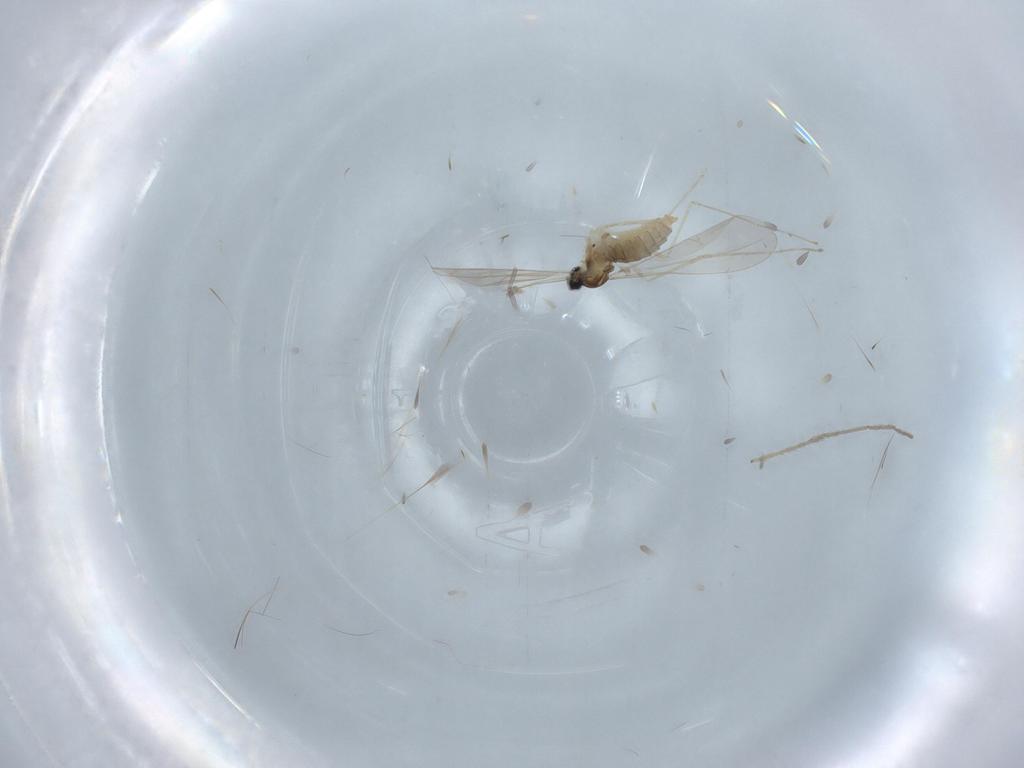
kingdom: Animalia
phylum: Arthropoda
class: Insecta
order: Diptera
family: Cecidomyiidae
